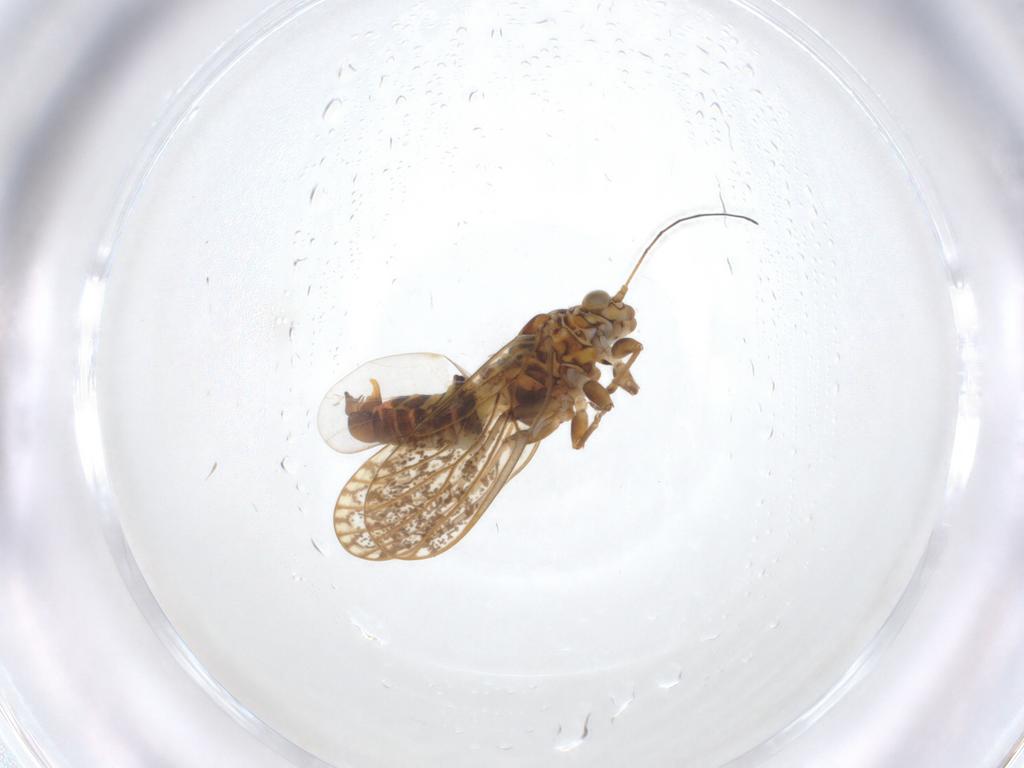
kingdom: Animalia
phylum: Arthropoda
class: Insecta
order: Hemiptera
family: Psyllidae
